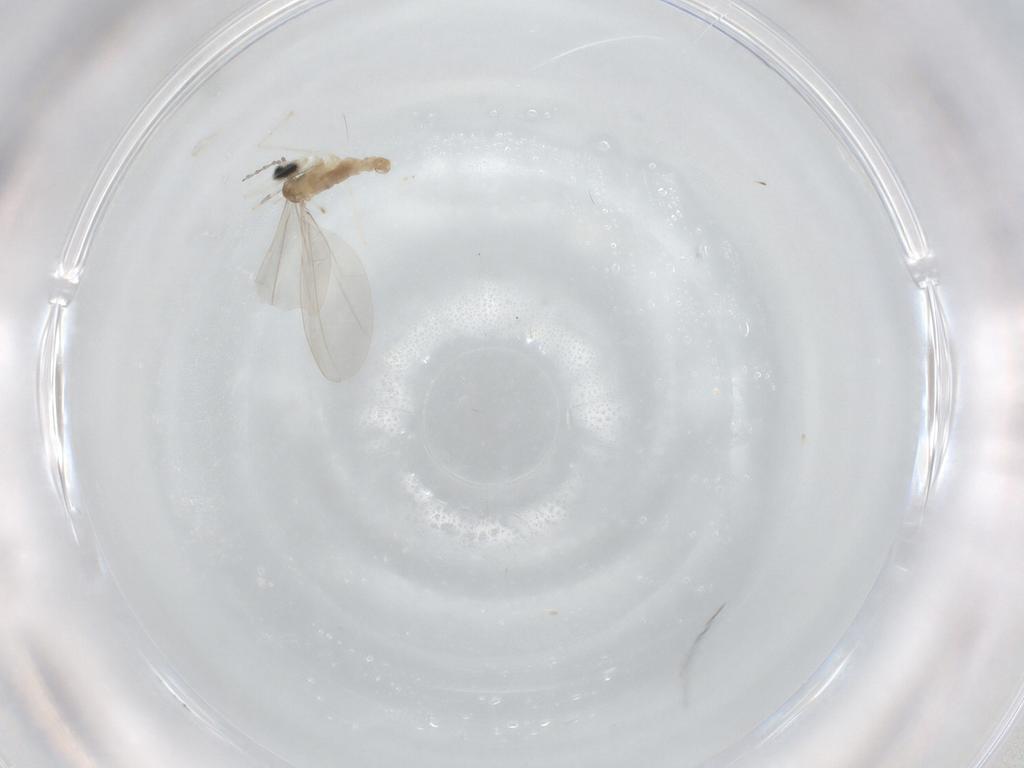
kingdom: Animalia
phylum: Arthropoda
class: Insecta
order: Diptera
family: Cecidomyiidae
